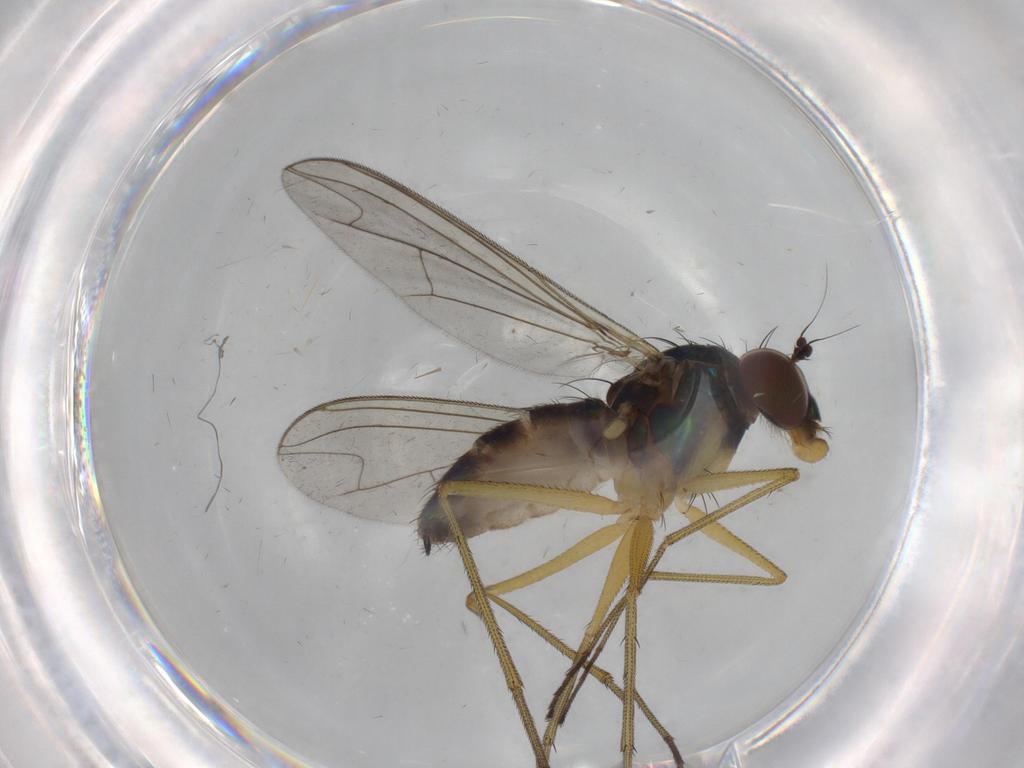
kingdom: Animalia
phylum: Arthropoda
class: Insecta
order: Diptera
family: Dolichopodidae
